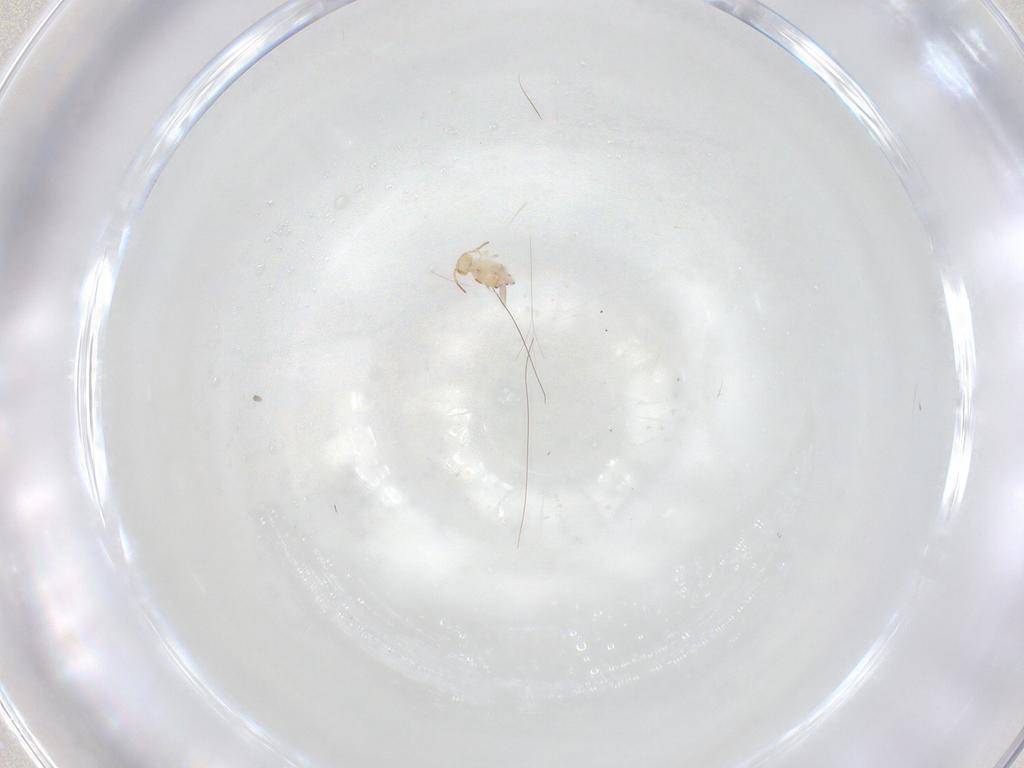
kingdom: Animalia
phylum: Arthropoda
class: Collembola
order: Symphypleona
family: Bourletiellidae
